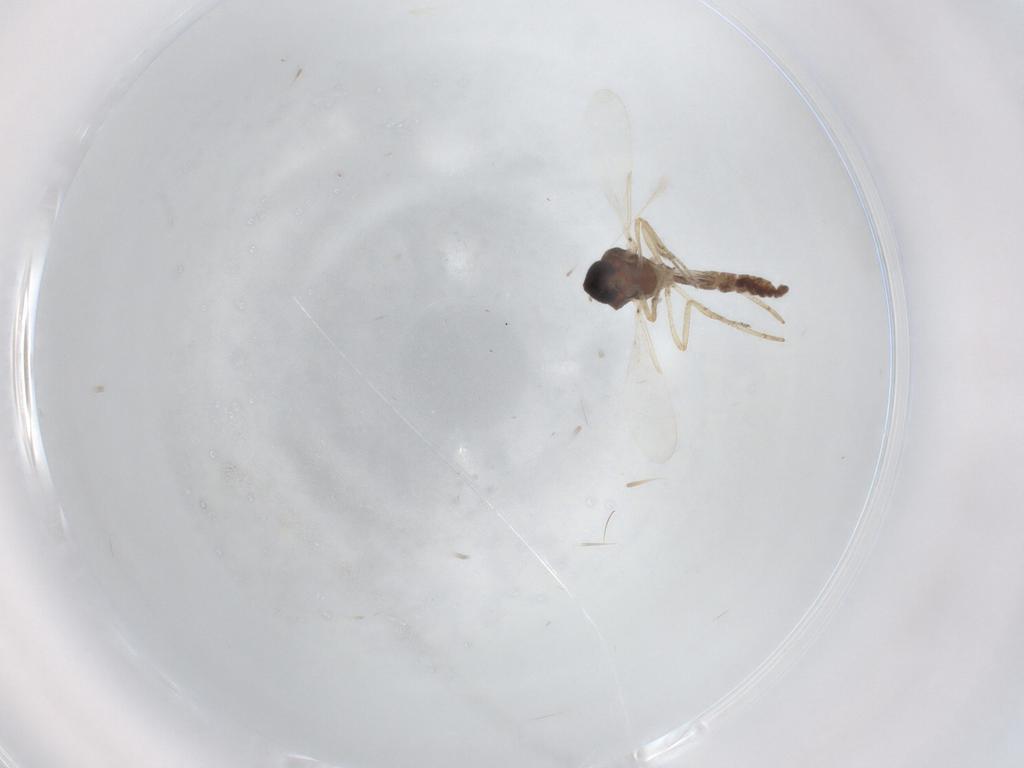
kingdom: Animalia
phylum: Arthropoda
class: Insecta
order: Diptera
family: Ceratopogonidae
